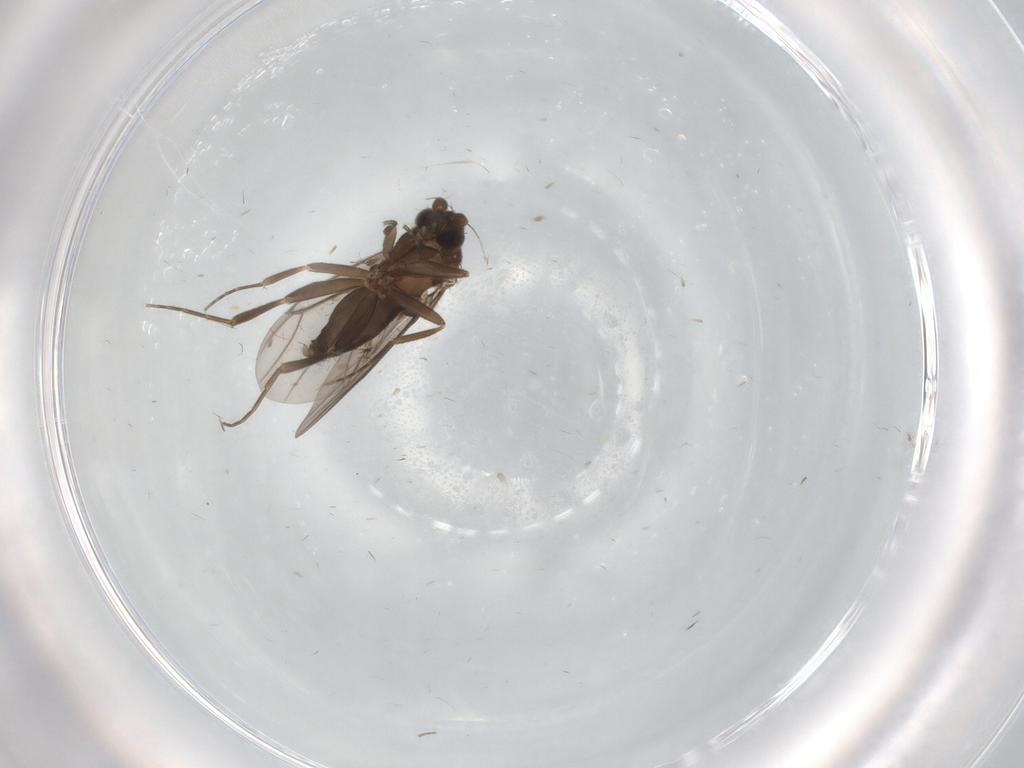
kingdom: Animalia
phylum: Arthropoda
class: Insecta
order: Diptera
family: Cecidomyiidae
